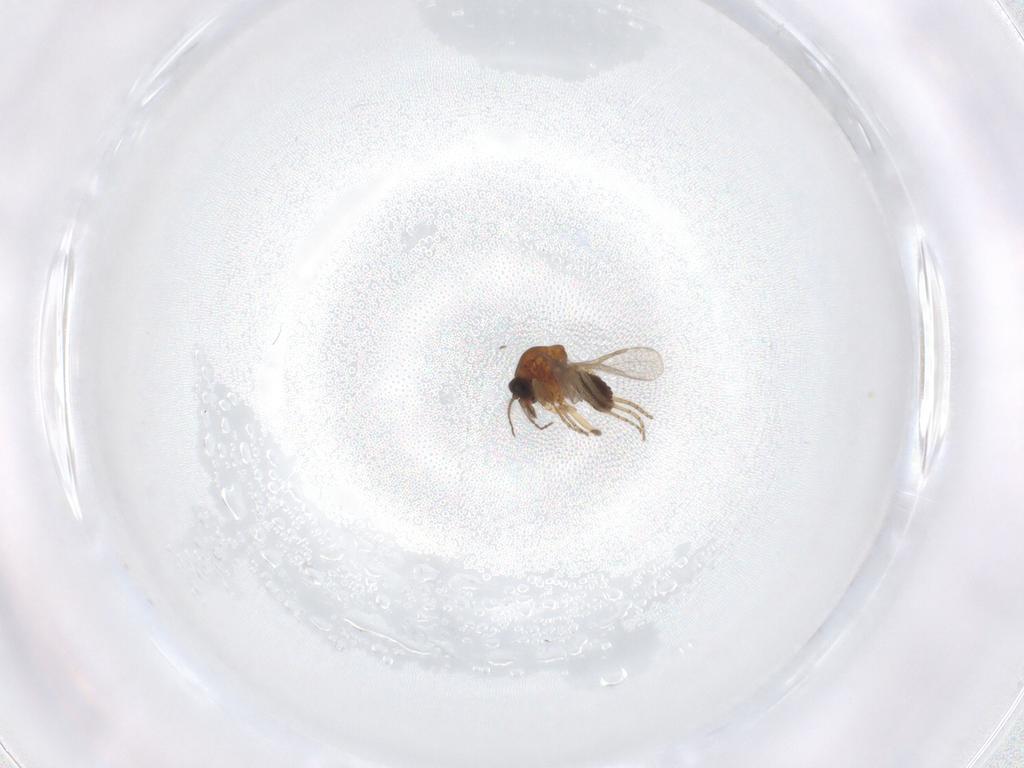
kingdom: Animalia
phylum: Arthropoda
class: Insecta
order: Diptera
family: Ceratopogonidae
